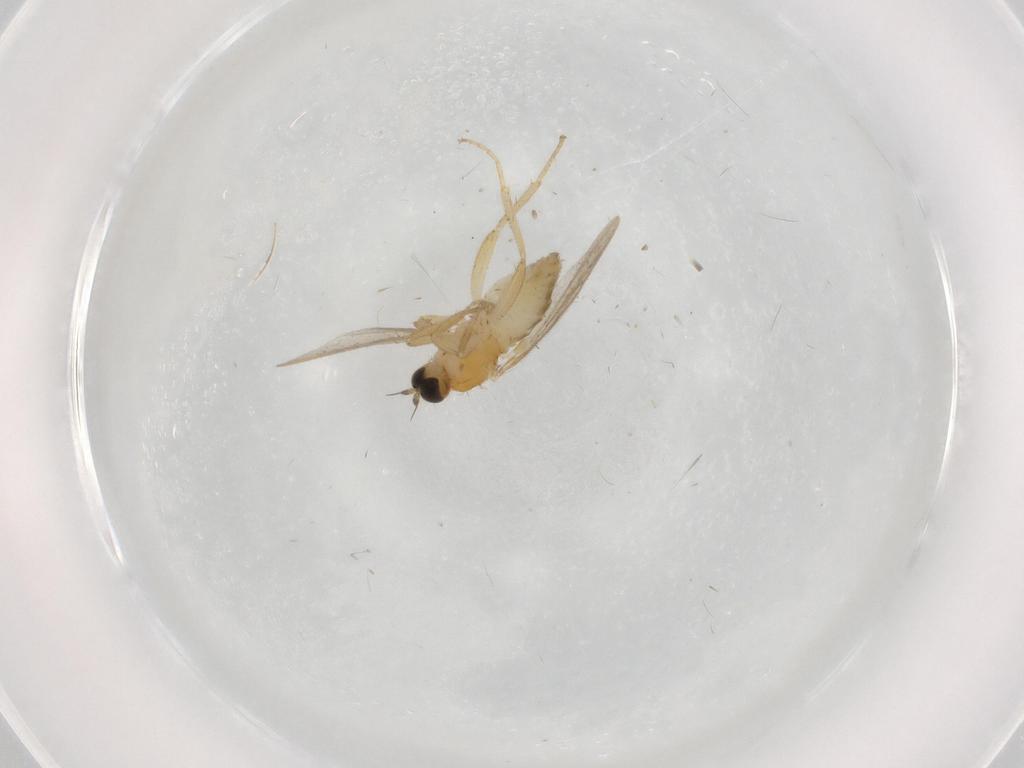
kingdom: Animalia
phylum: Arthropoda
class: Insecta
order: Diptera
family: Hybotidae
